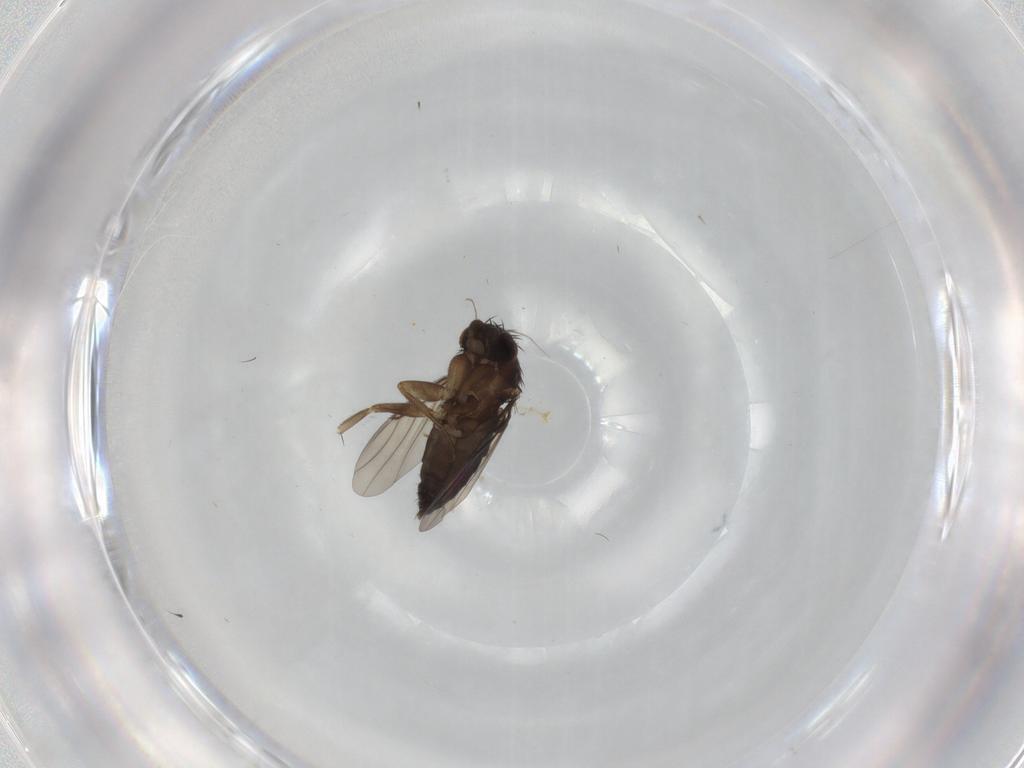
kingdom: Animalia
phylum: Arthropoda
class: Insecta
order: Diptera
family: Phoridae
